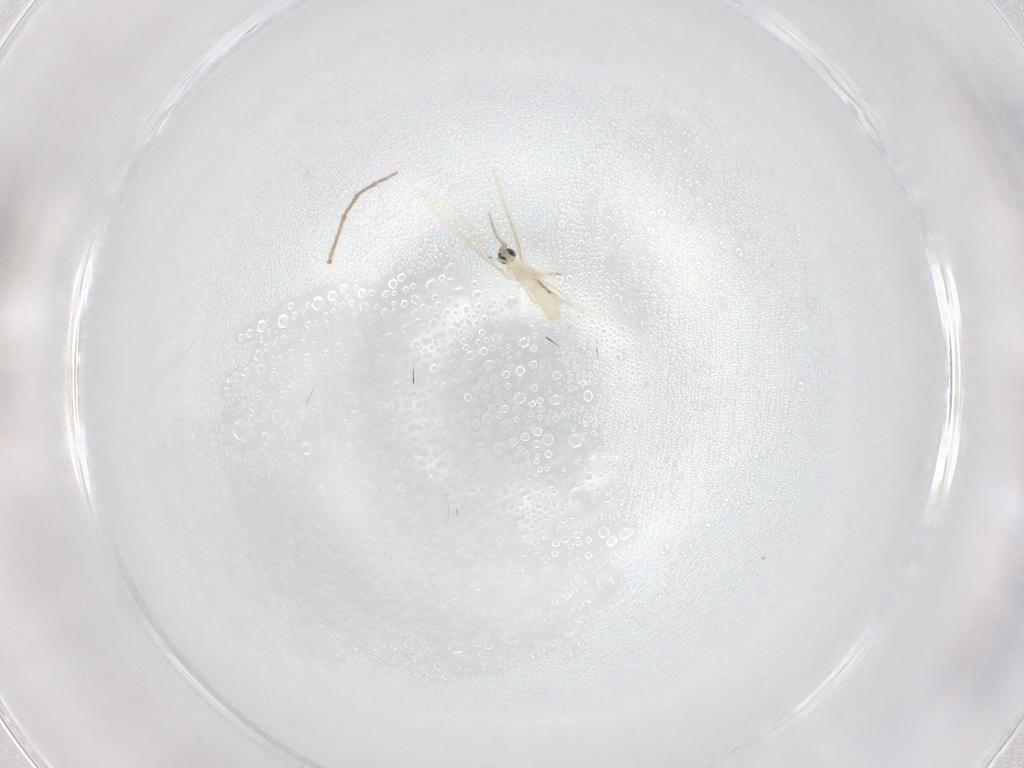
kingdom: Animalia
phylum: Arthropoda
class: Insecta
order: Diptera
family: Chironomidae
